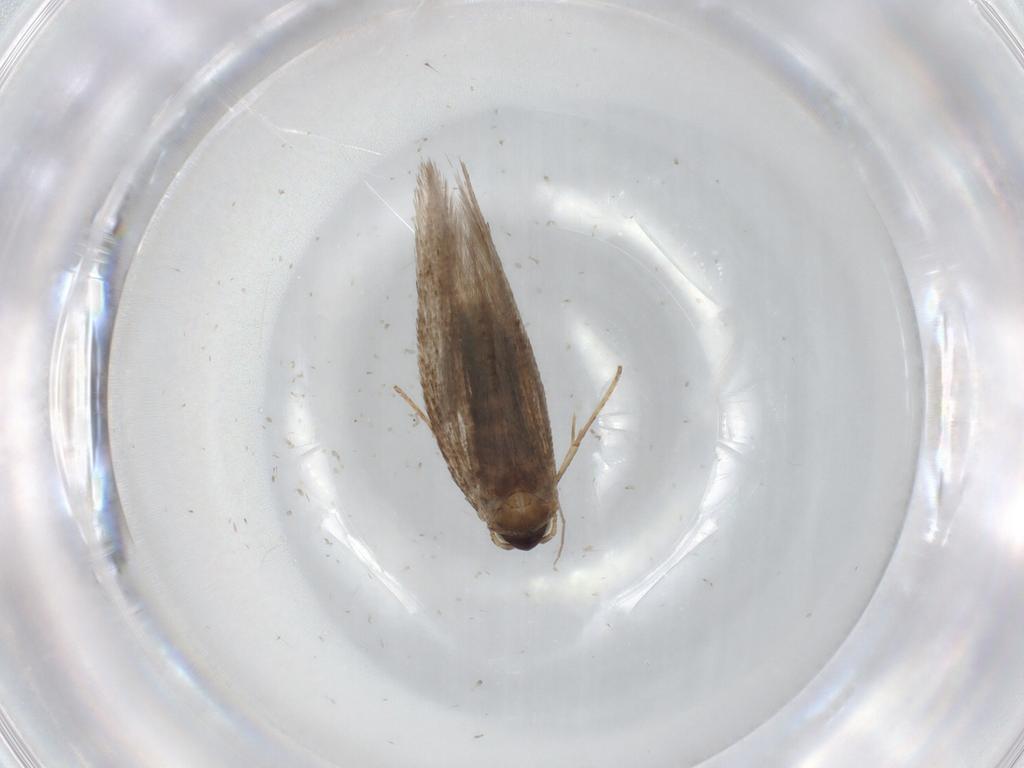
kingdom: Animalia
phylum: Arthropoda
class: Insecta
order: Lepidoptera
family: Nepticulidae
